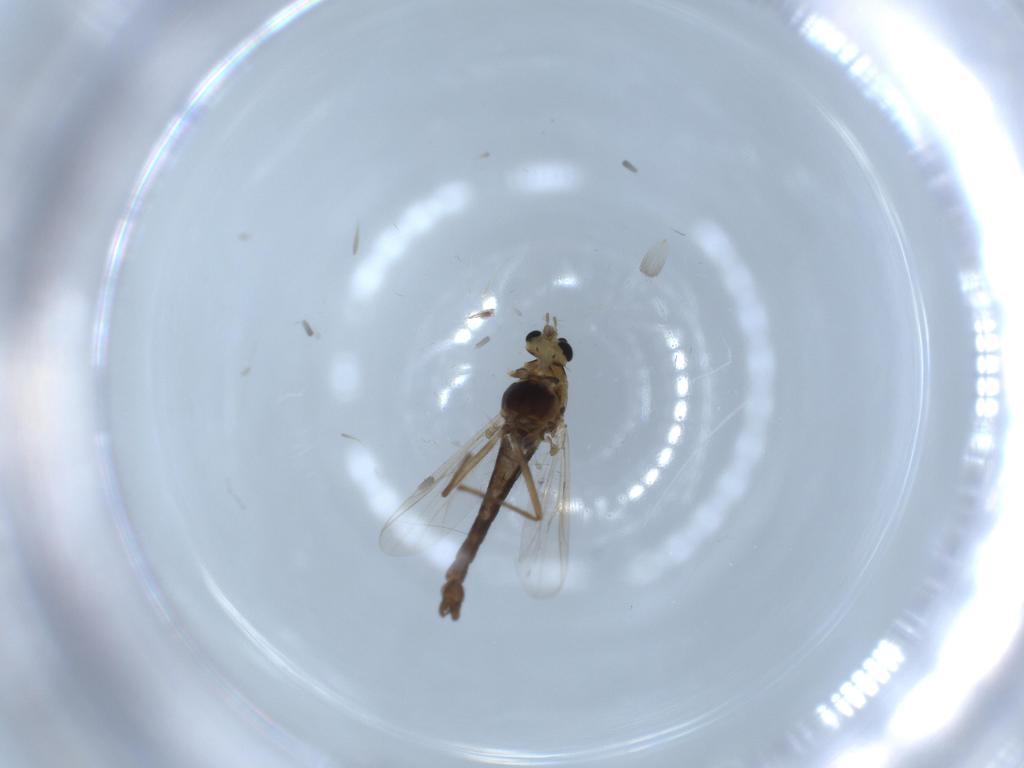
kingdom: Animalia
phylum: Arthropoda
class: Insecta
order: Diptera
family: Chironomidae
